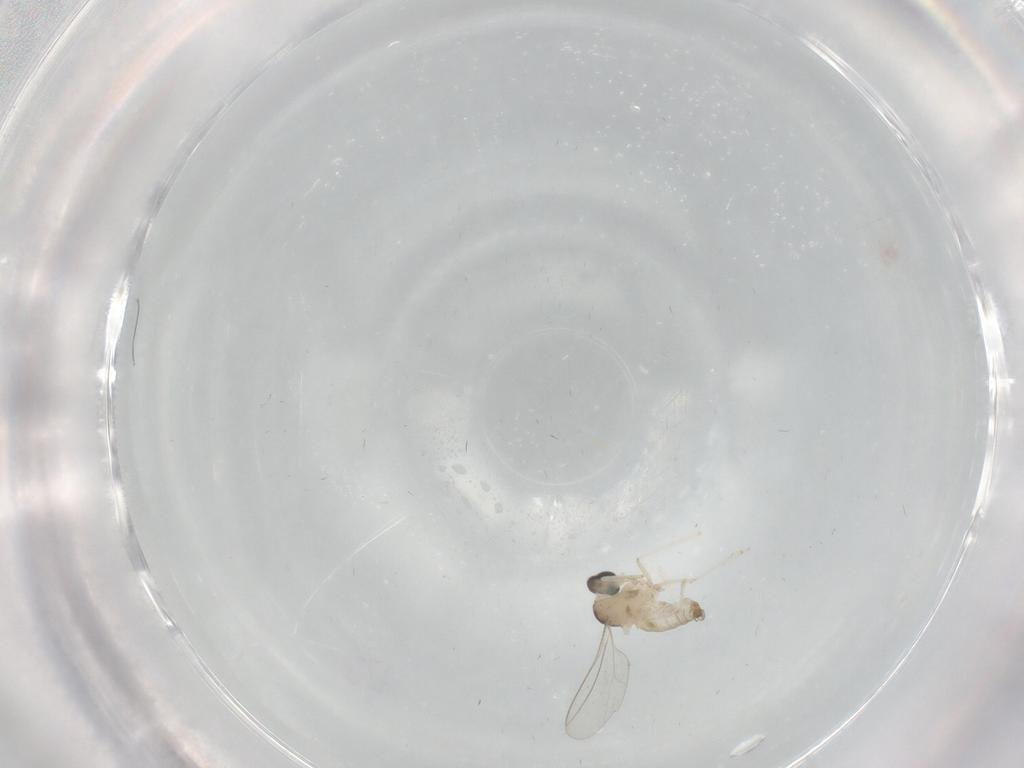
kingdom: Animalia
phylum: Arthropoda
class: Insecta
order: Diptera
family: Cecidomyiidae
